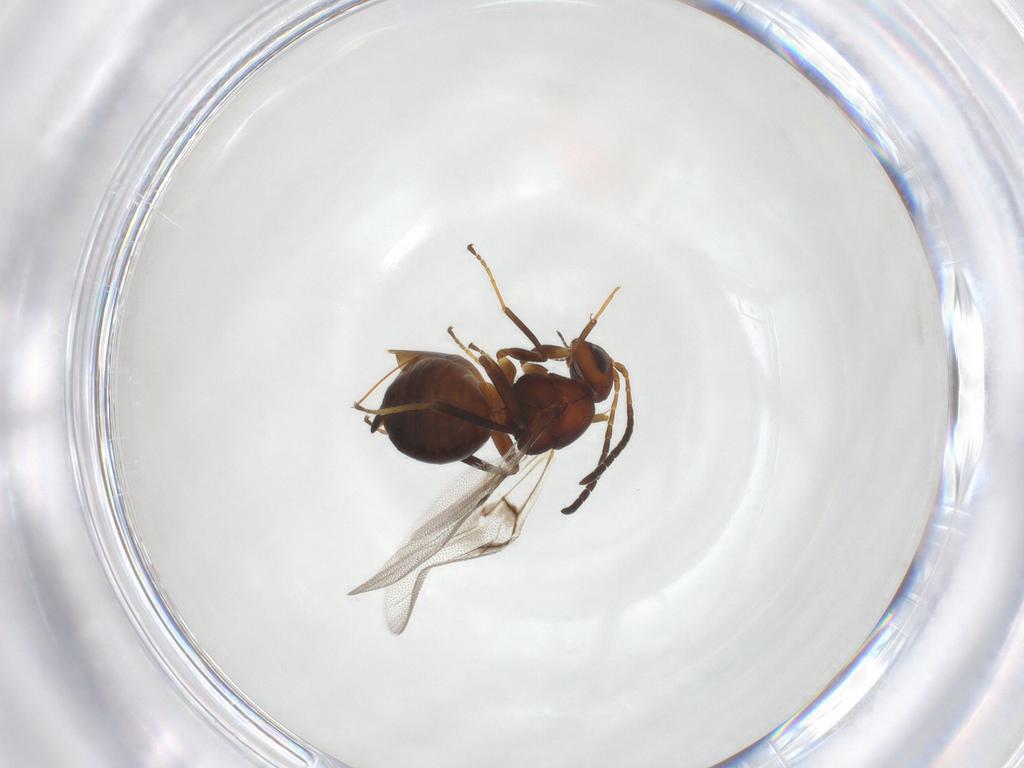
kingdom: Animalia
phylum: Arthropoda
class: Insecta
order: Hymenoptera
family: Cynipidae
